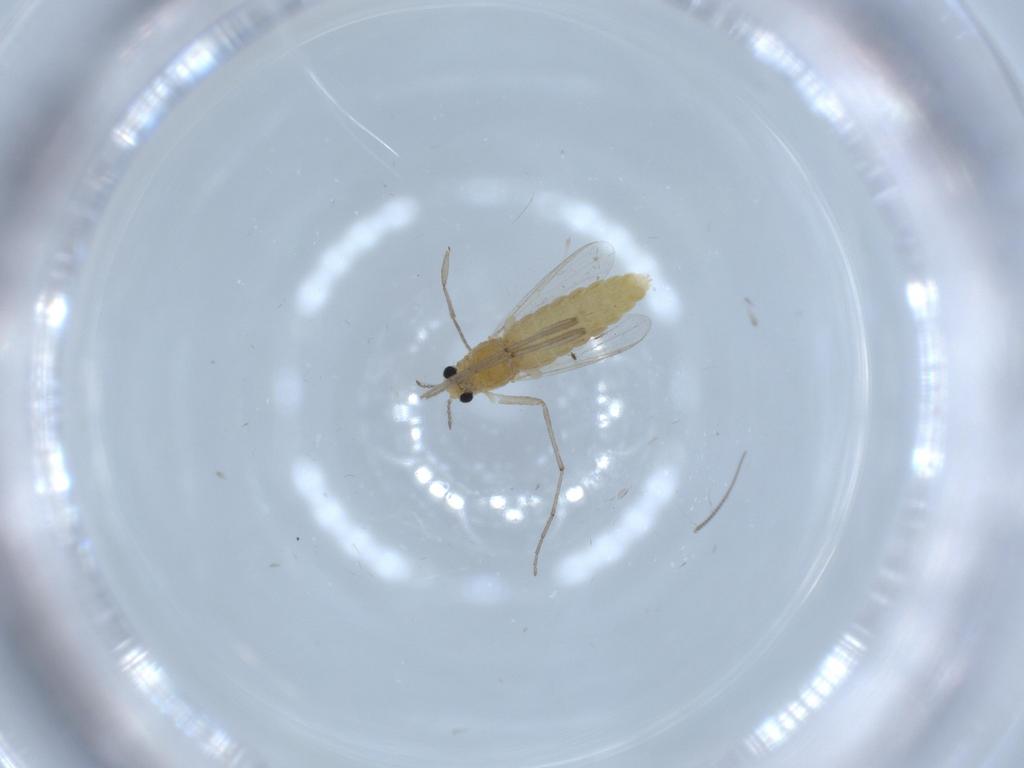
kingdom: Animalia
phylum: Arthropoda
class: Insecta
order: Diptera
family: Chironomidae
